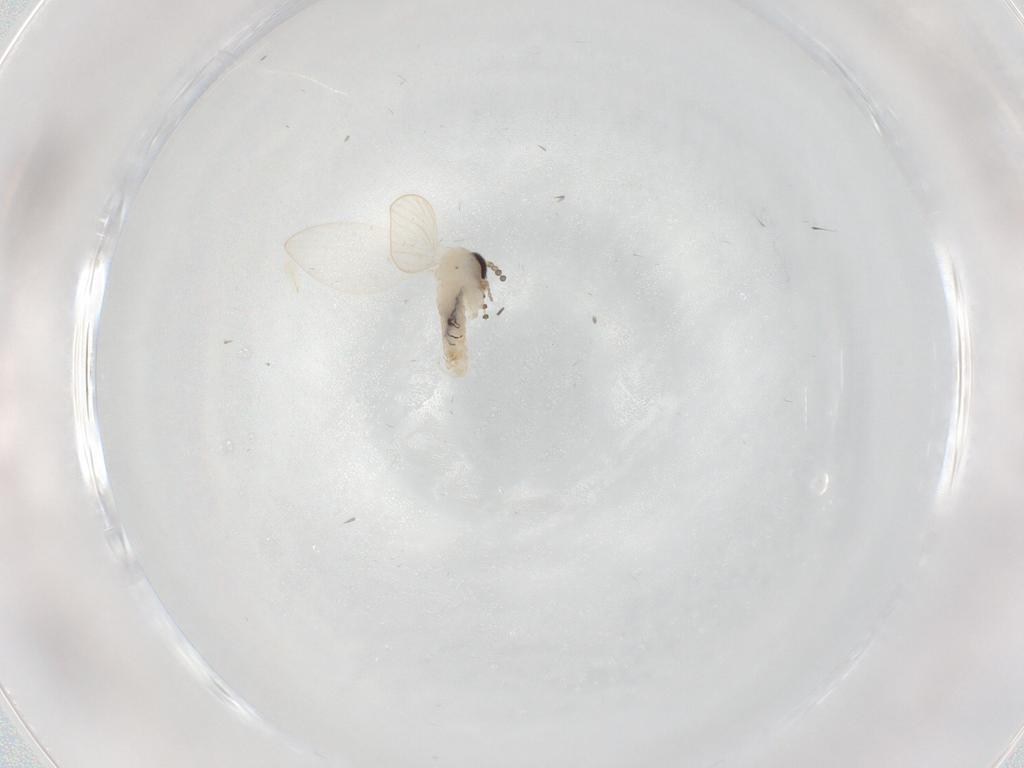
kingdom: Animalia
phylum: Arthropoda
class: Insecta
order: Diptera
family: Psychodidae
